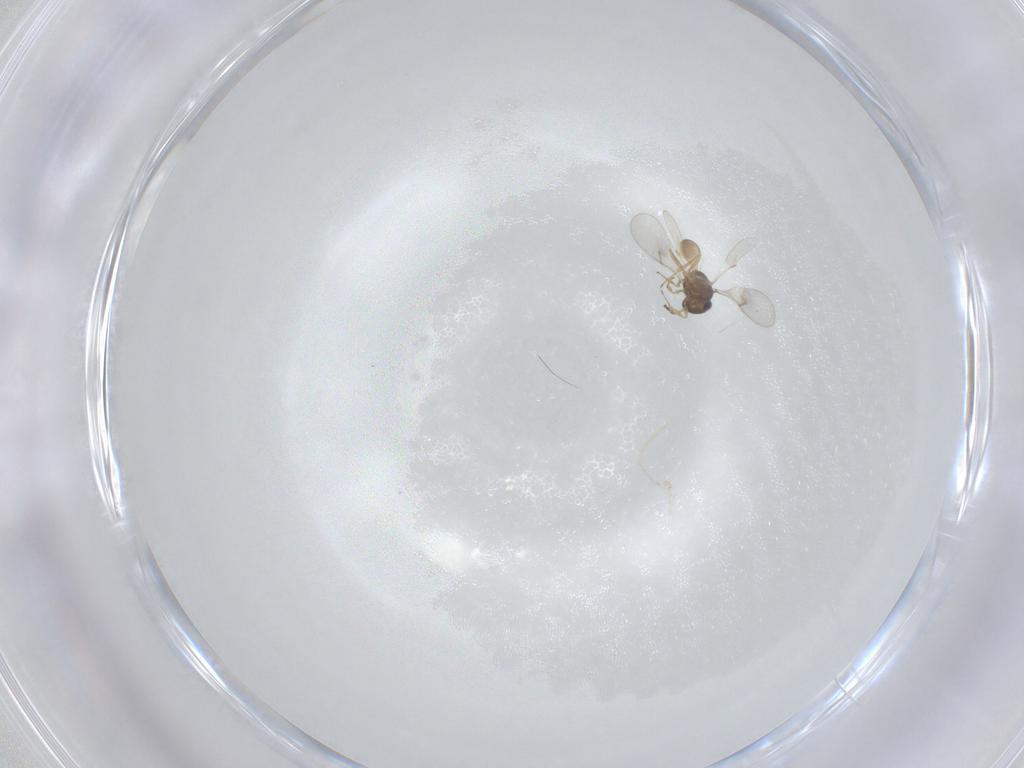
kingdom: Animalia
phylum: Arthropoda
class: Insecta
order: Hymenoptera
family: Scelionidae
